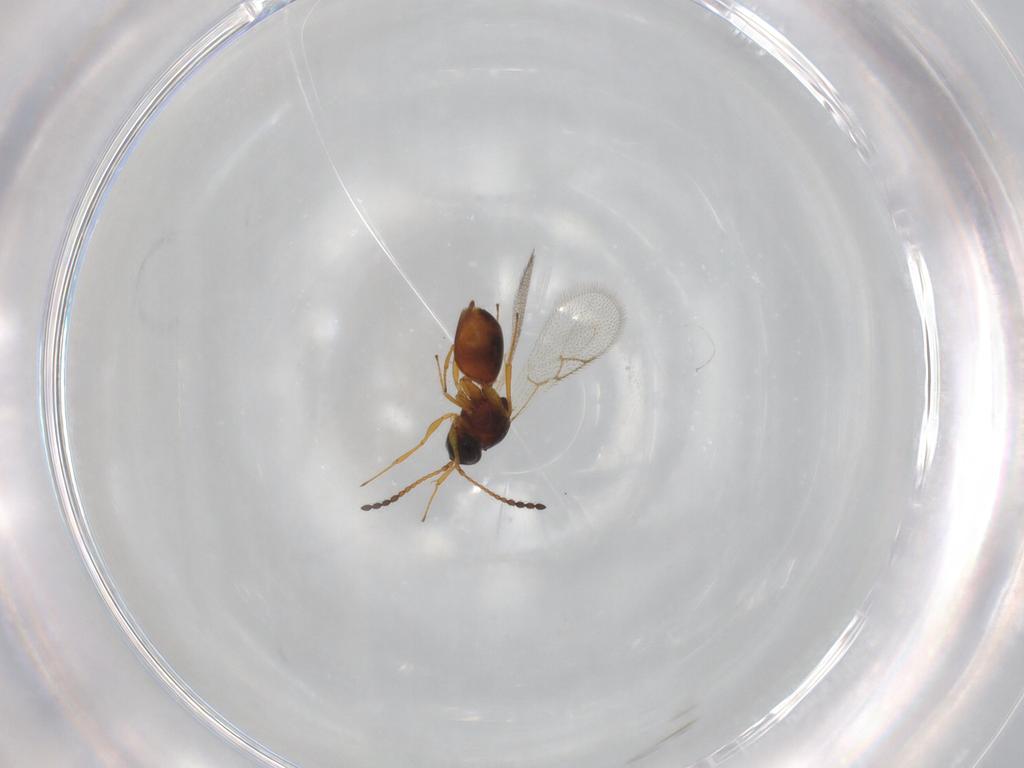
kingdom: Animalia
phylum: Arthropoda
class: Insecta
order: Hymenoptera
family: Figitidae
